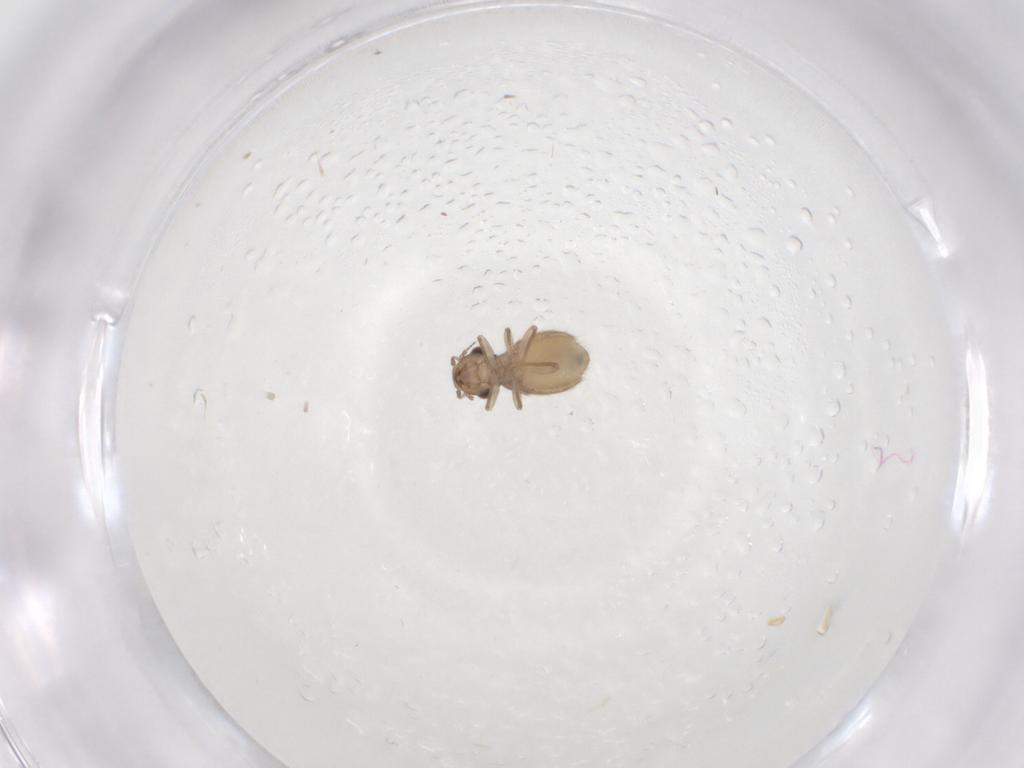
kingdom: Animalia
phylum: Arthropoda
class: Insecta
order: Psocodea
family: Trogiidae
